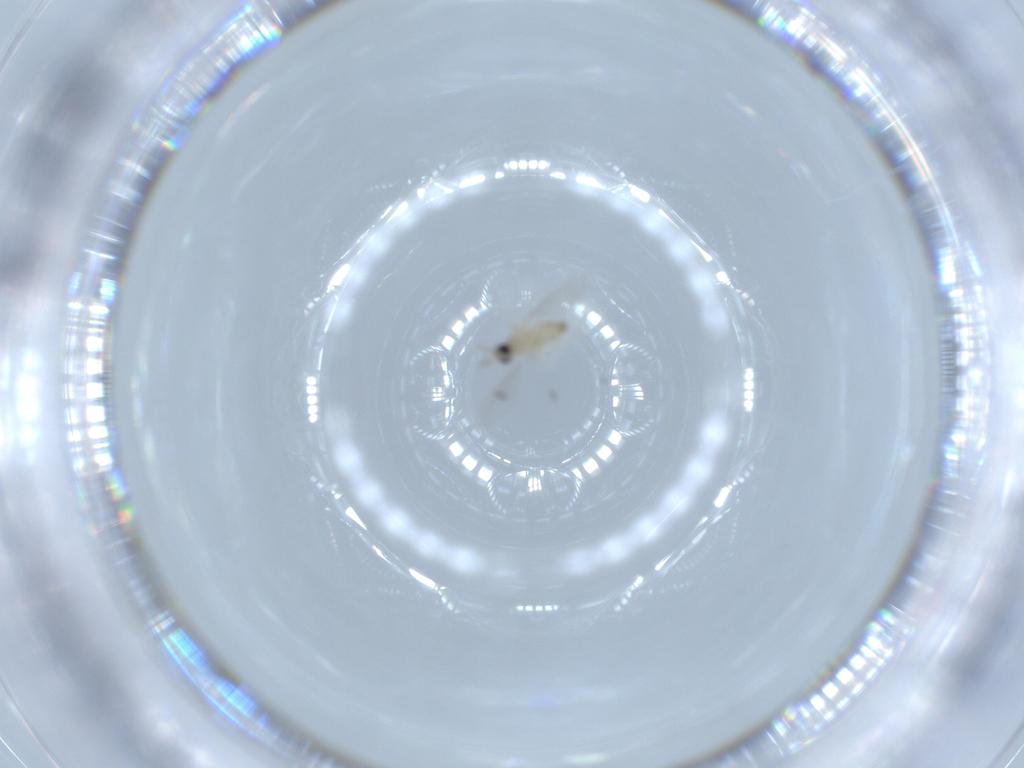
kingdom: Animalia
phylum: Arthropoda
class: Insecta
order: Diptera
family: Cecidomyiidae
